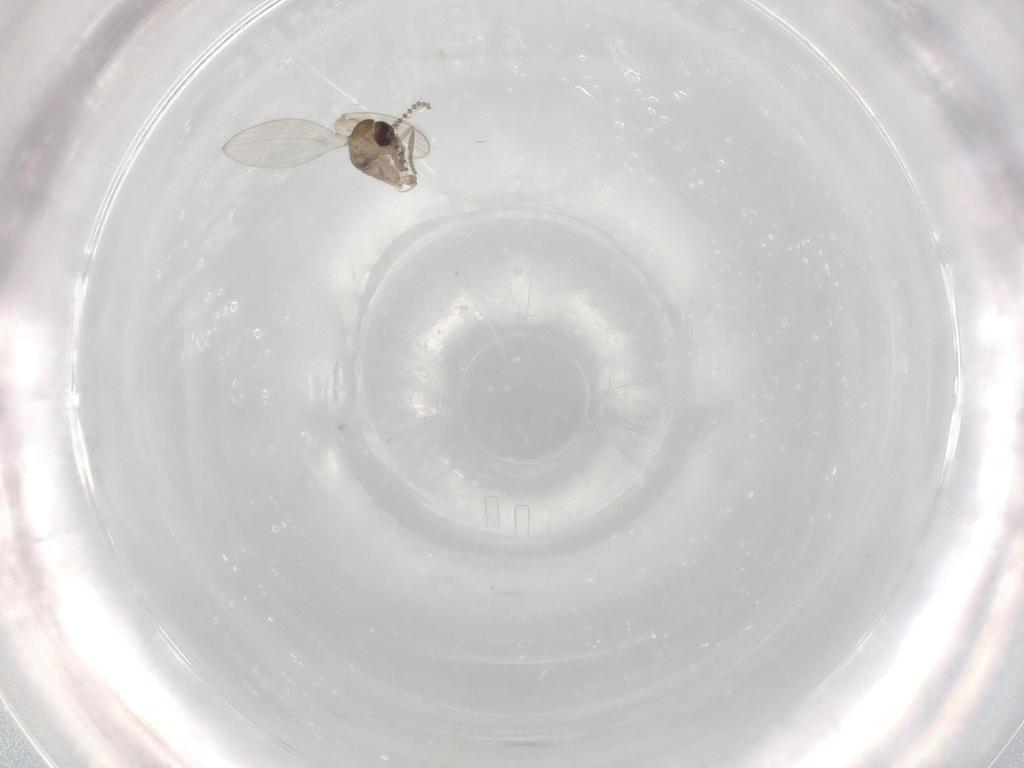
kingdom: Animalia
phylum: Arthropoda
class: Insecta
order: Diptera
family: Psychodidae
